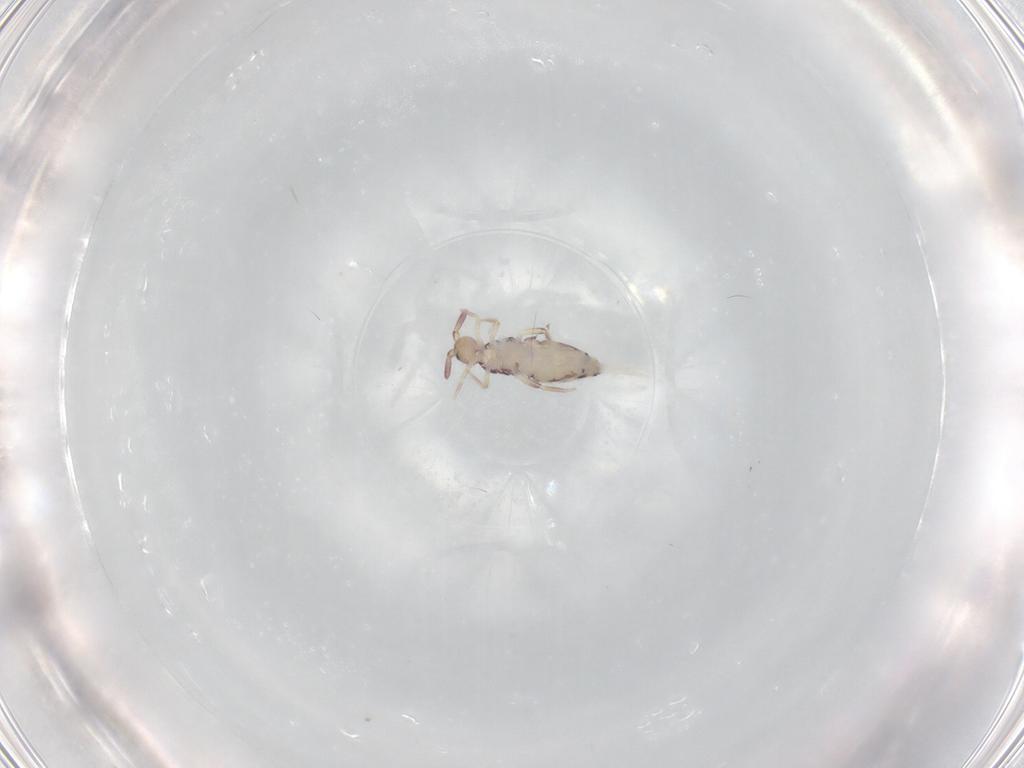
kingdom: Animalia
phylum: Arthropoda
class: Collembola
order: Entomobryomorpha
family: Entomobryidae
